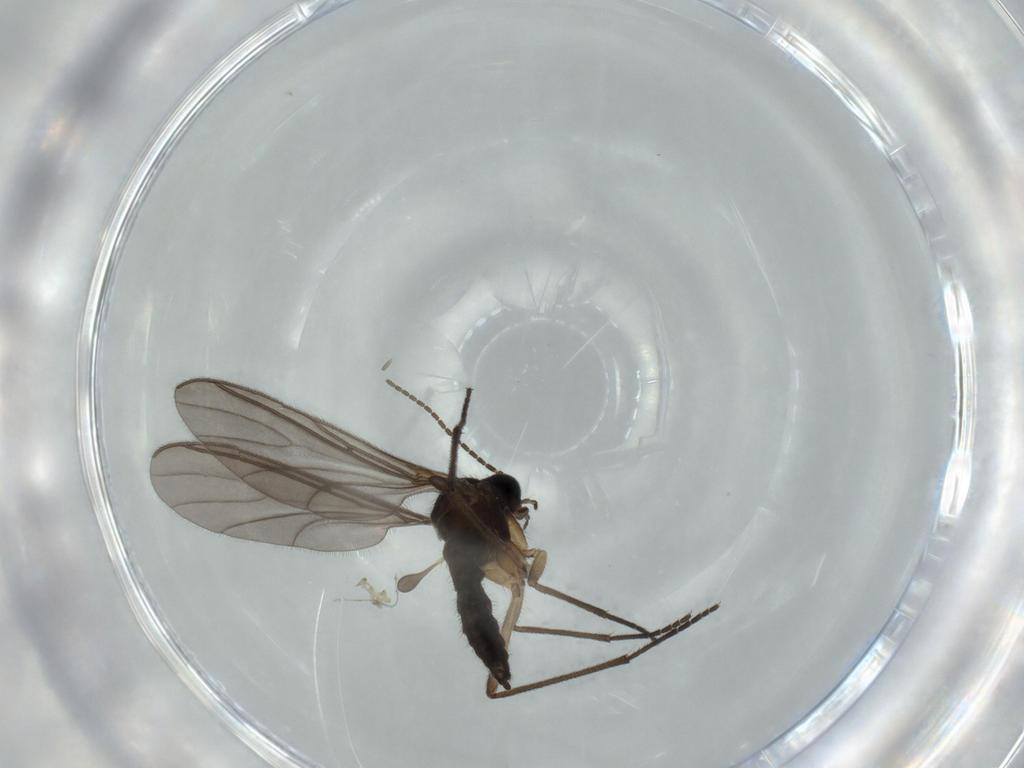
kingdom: Animalia
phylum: Arthropoda
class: Insecta
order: Diptera
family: Sciaridae
